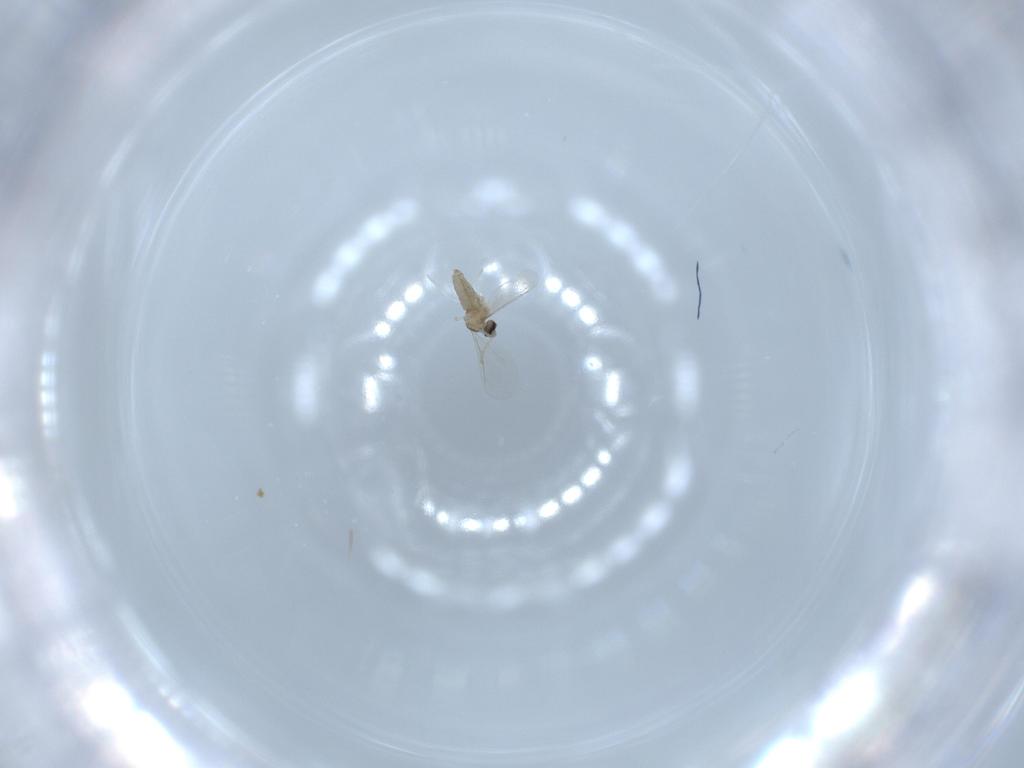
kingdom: Animalia
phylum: Arthropoda
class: Insecta
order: Diptera
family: Cecidomyiidae
